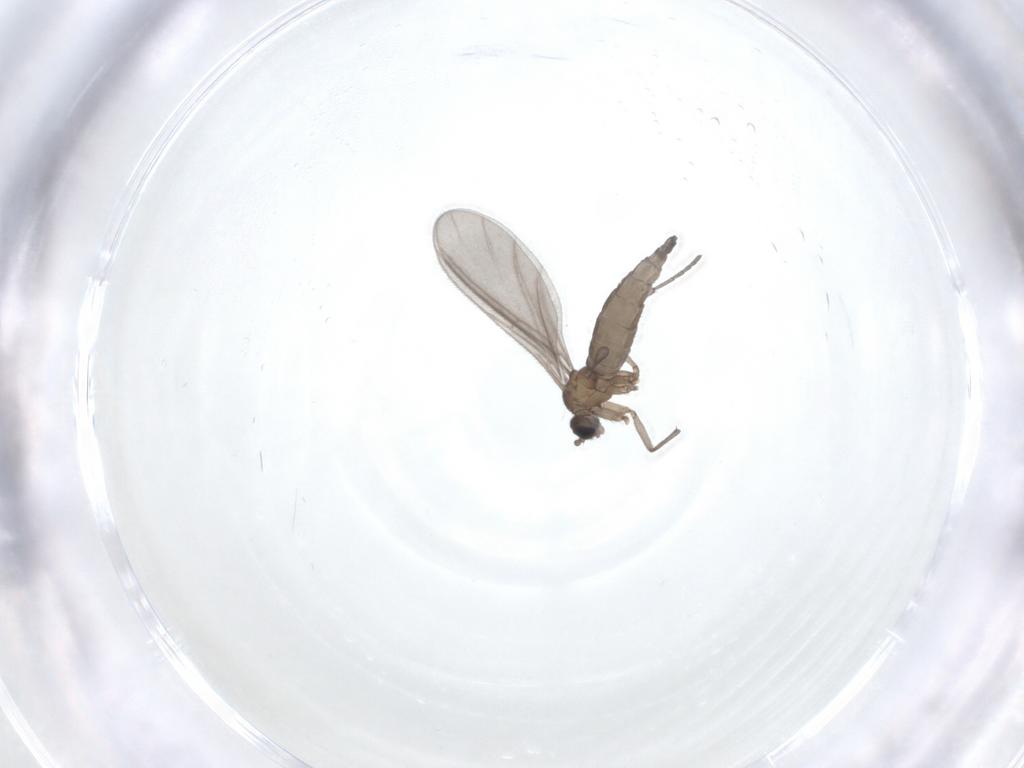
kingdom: Animalia
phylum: Arthropoda
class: Insecta
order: Diptera
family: Sciaridae
